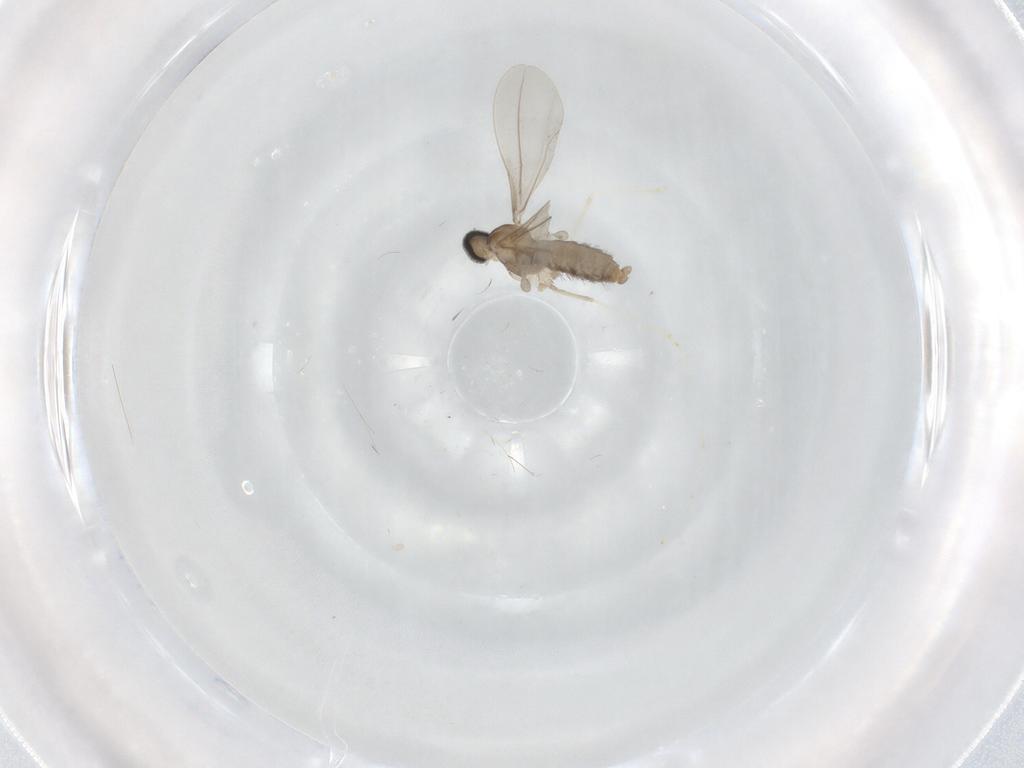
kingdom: Animalia
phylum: Arthropoda
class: Insecta
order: Diptera
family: Cecidomyiidae
